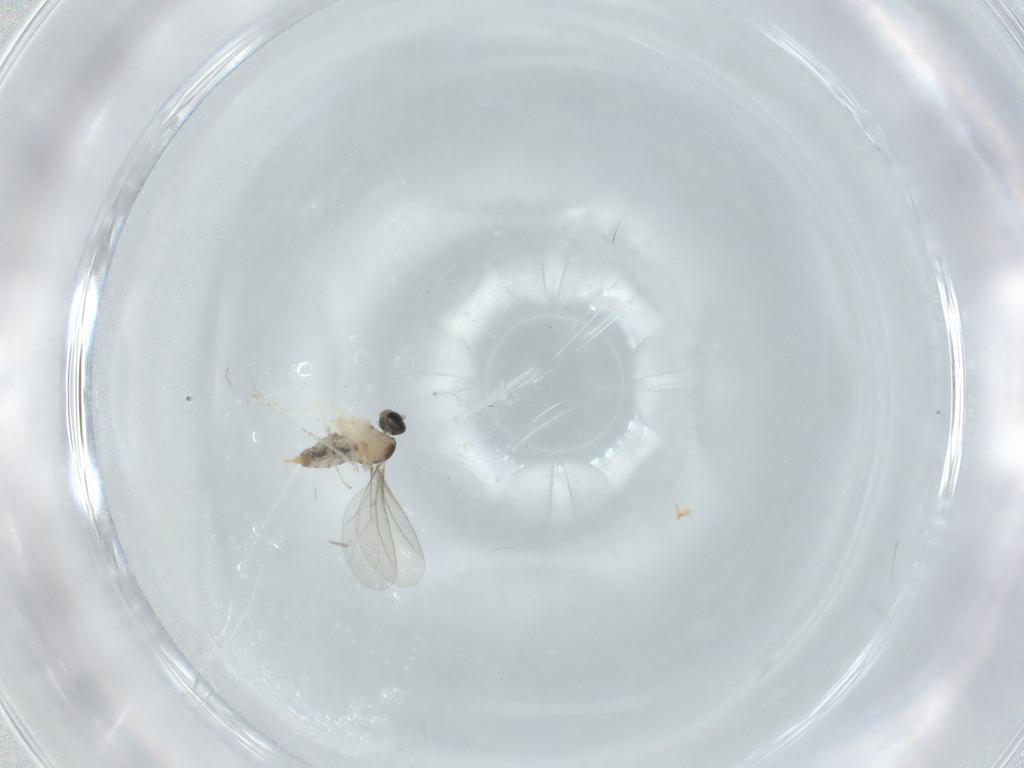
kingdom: Animalia
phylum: Arthropoda
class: Insecta
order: Diptera
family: Cecidomyiidae
